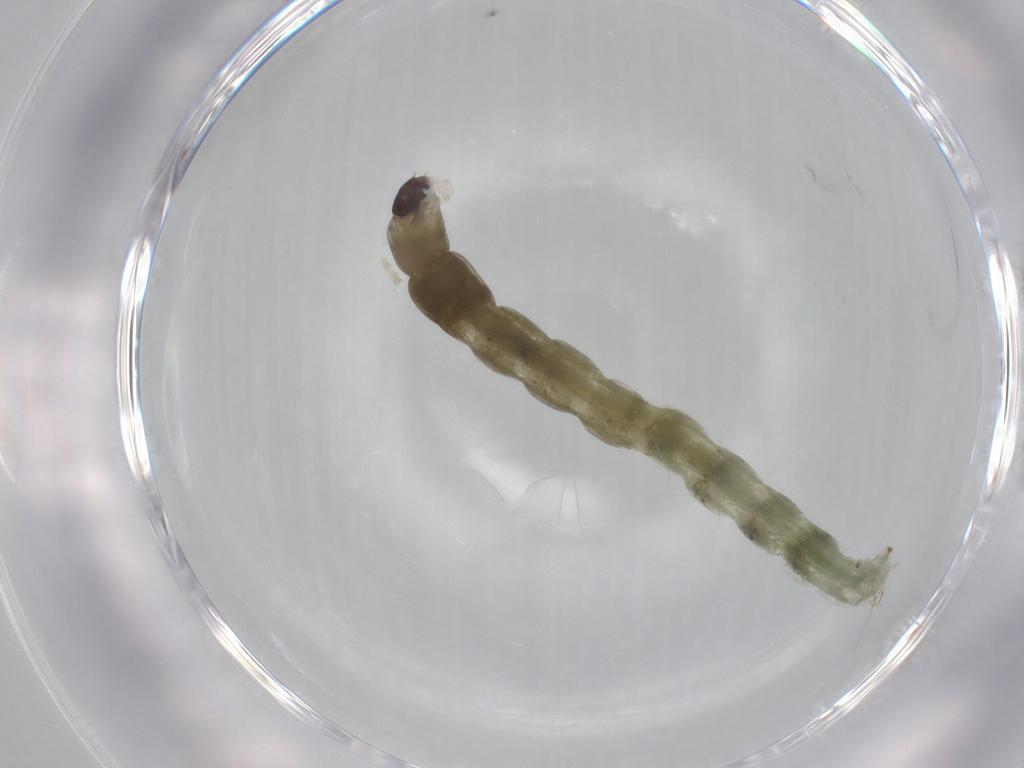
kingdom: Animalia
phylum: Arthropoda
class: Insecta
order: Diptera
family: Chironomidae
